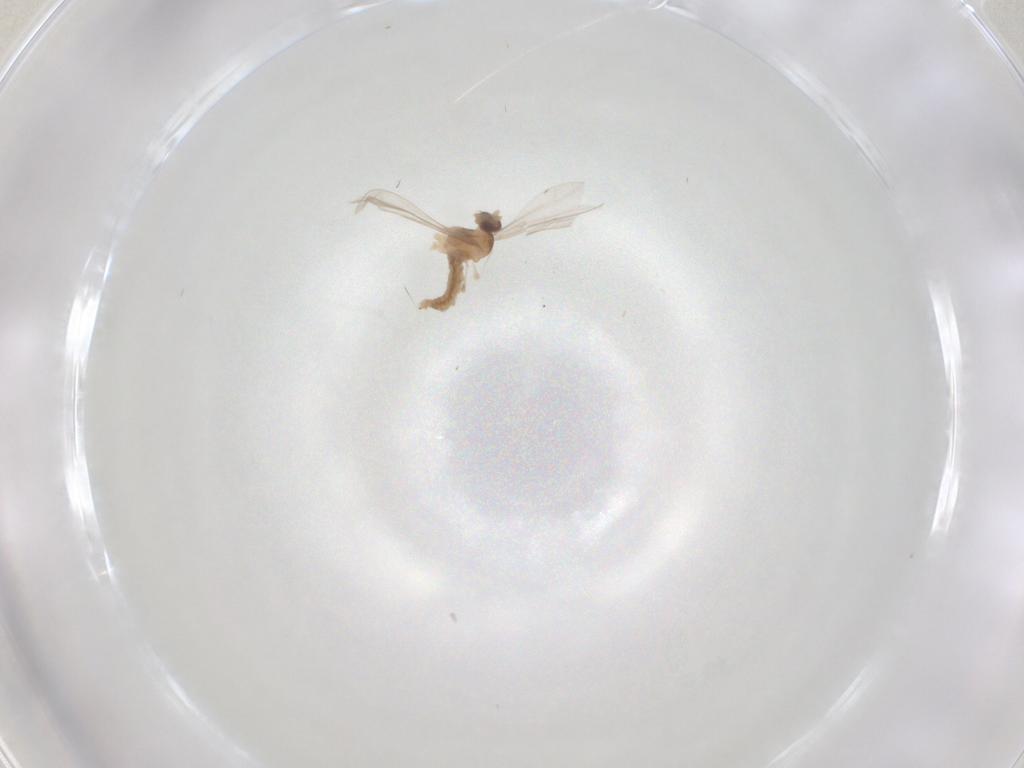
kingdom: Animalia
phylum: Arthropoda
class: Insecta
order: Diptera
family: Cecidomyiidae
